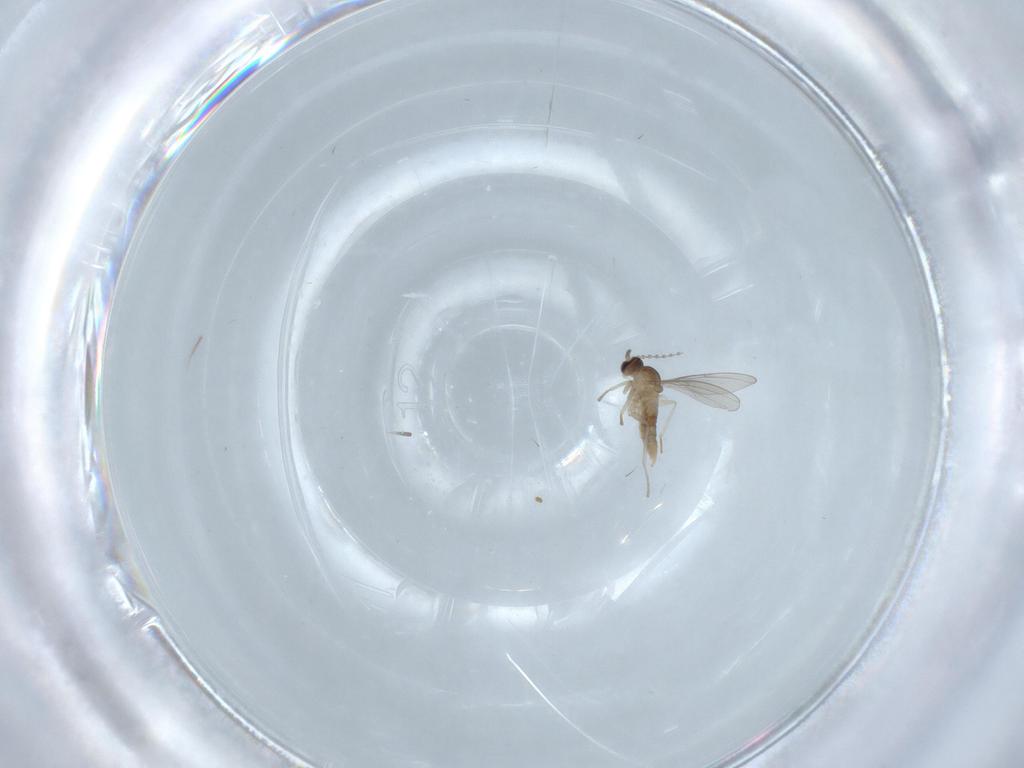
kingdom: Animalia
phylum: Arthropoda
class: Insecta
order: Diptera
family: Cecidomyiidae
